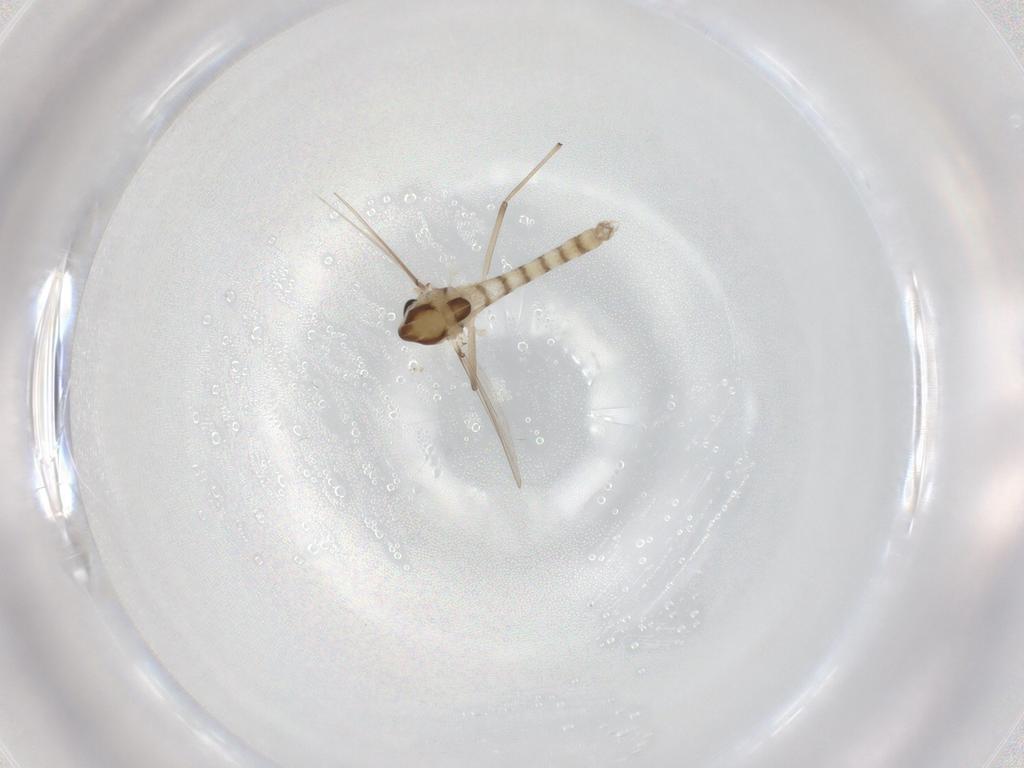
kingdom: Animalia
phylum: Arthropoda
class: Insecta
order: Diptera
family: Chironomidae
